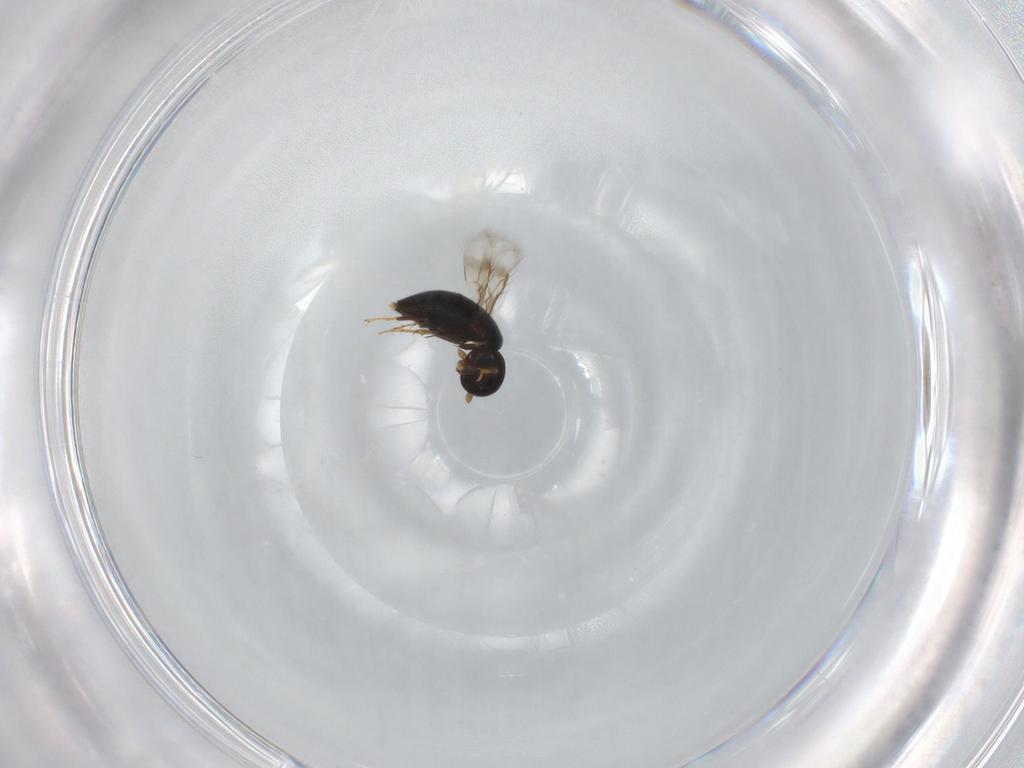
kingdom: Animalia
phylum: Arthropoda
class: Insecta
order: Hymenoptera
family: Signiphoridae
